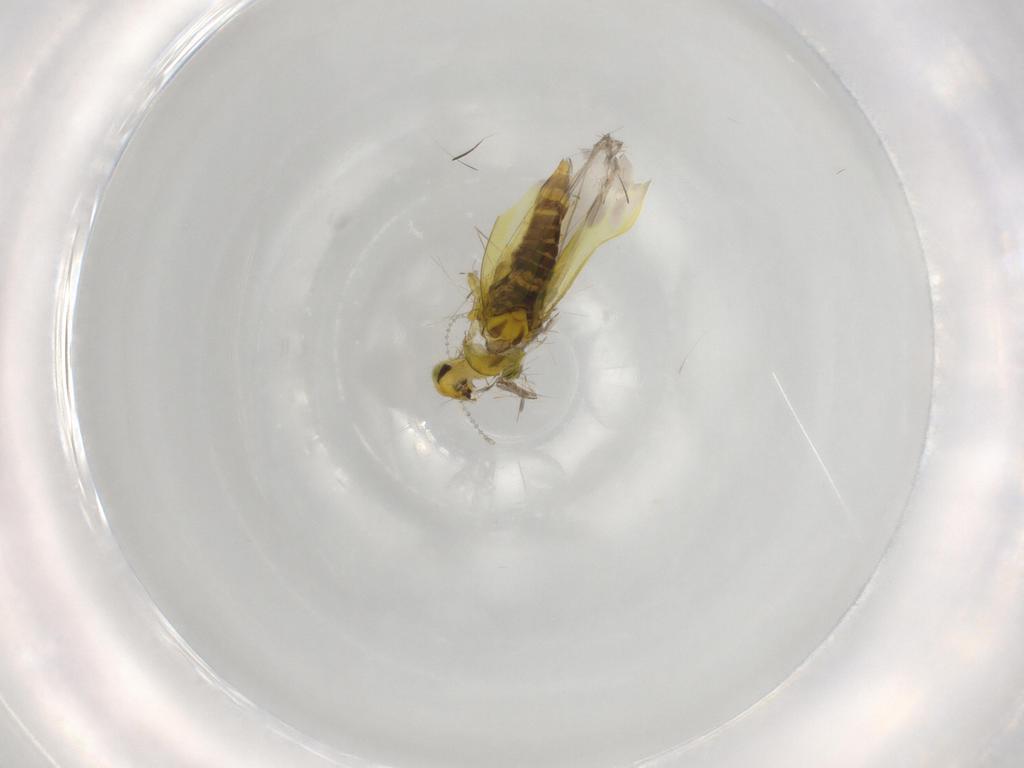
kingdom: Animalia
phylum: Arthropoda
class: Insecta
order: Hemiptera
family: Cicadellidae
